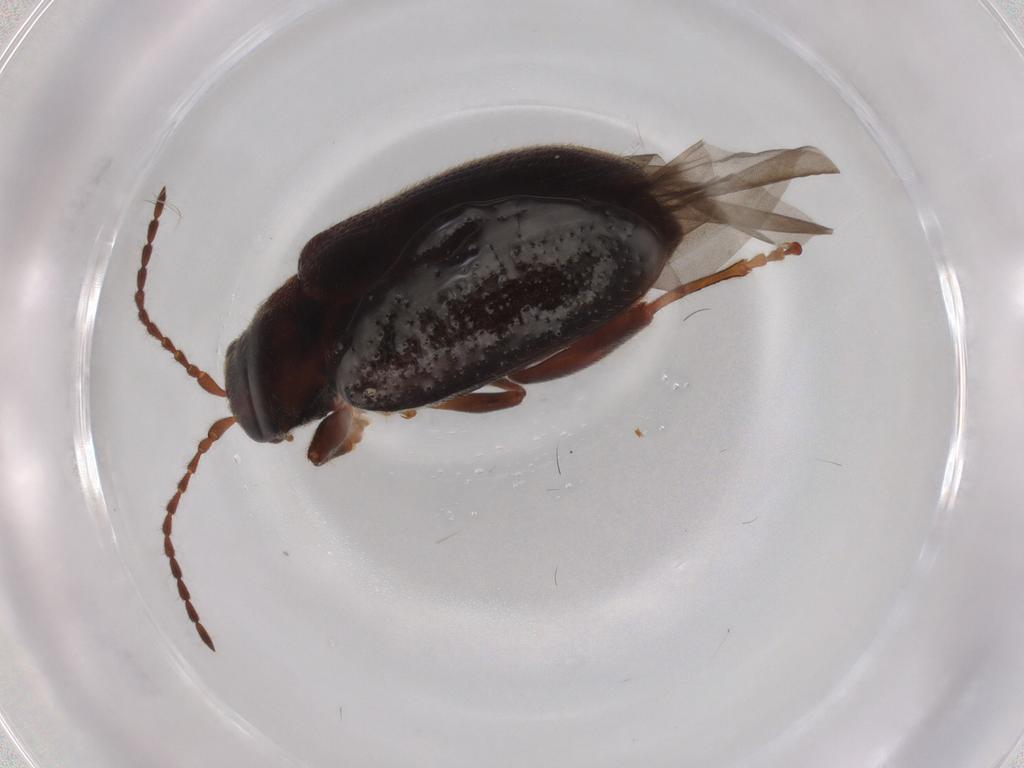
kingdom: Animalia
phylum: Arthropoda
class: Insecta
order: Coleoptera
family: Chrysomelidae
